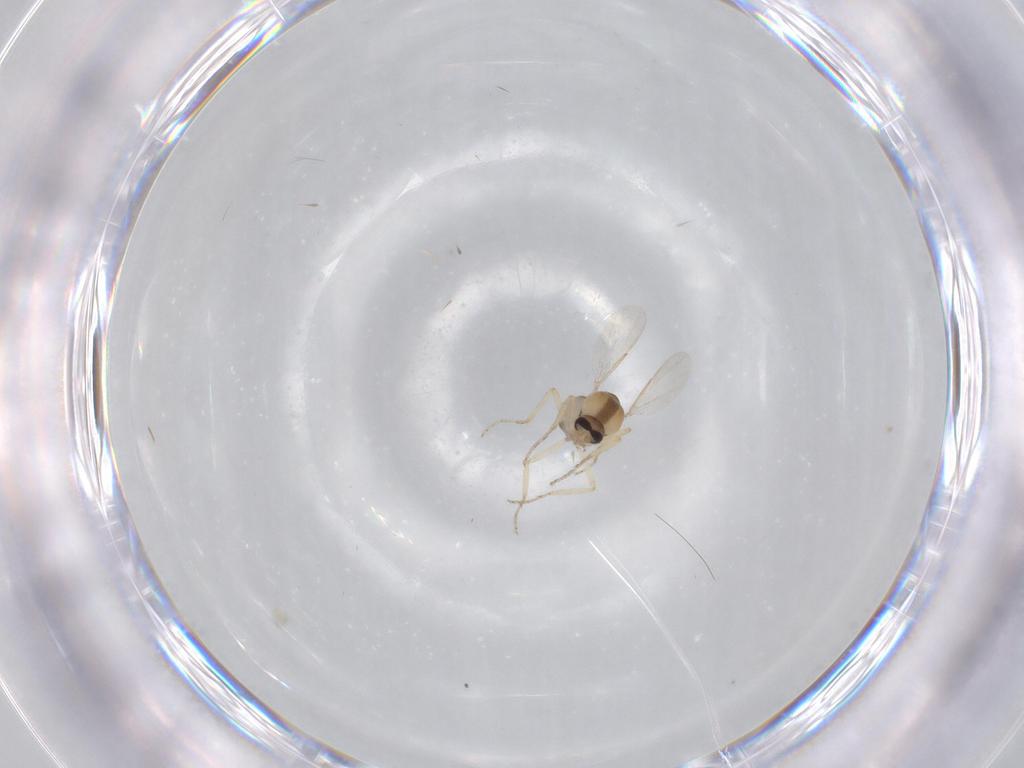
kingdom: Animalia
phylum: Arthropoda
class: Insecta
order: Diptera
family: Ceratopogonidae
